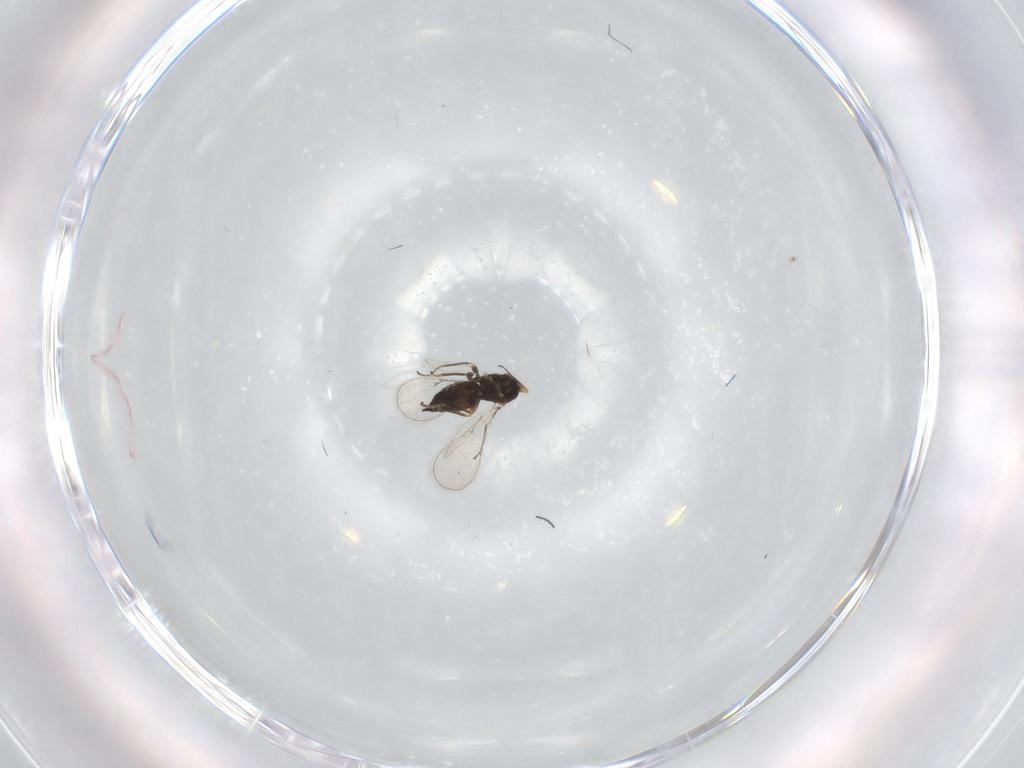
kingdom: Animalia
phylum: Arthropoda
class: Insecta
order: Hymenoptera
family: Eulophidae
